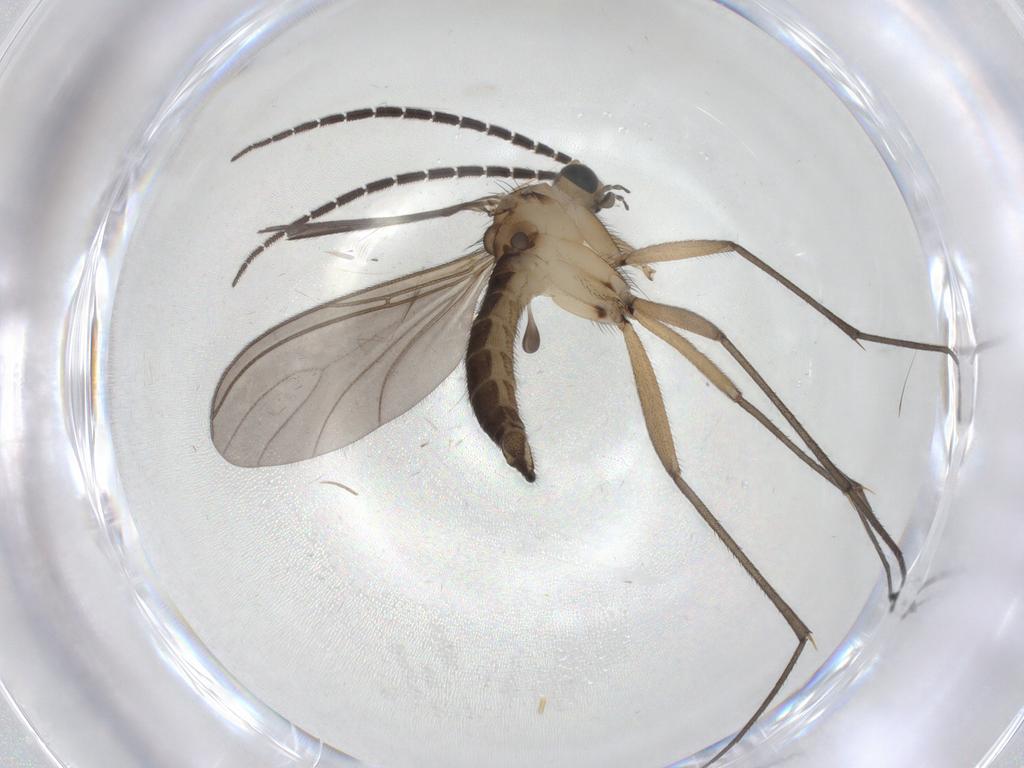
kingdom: Animalia
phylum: Arthropoda
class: Insecta
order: Diptera
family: Sciaridae
